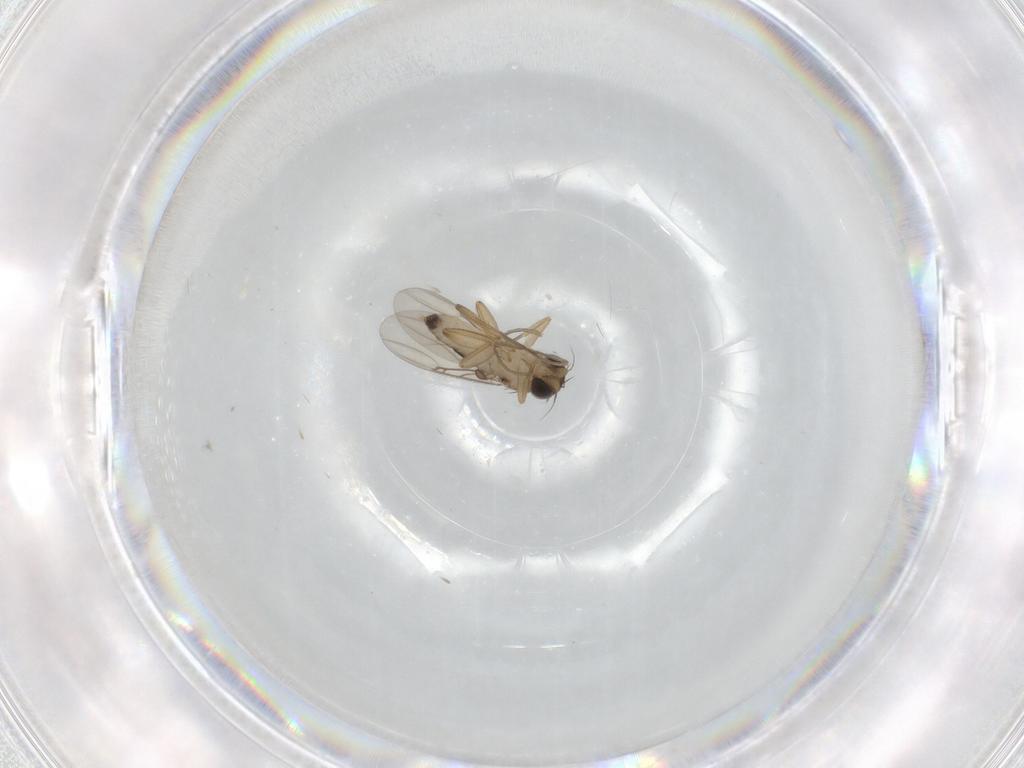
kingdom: Animalia
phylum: Arthropoda
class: Insecta
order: Diptera
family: Phoridae
